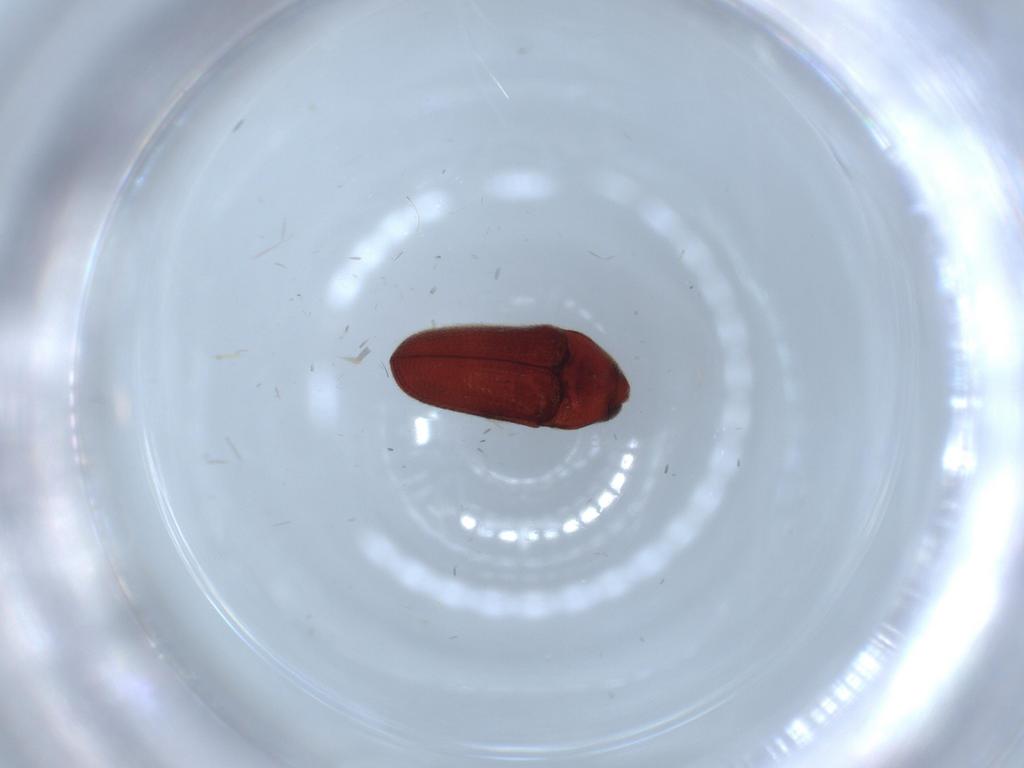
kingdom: Animalia
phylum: Arthropoda
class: Insecta
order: Coleoptera
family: Throscidae
